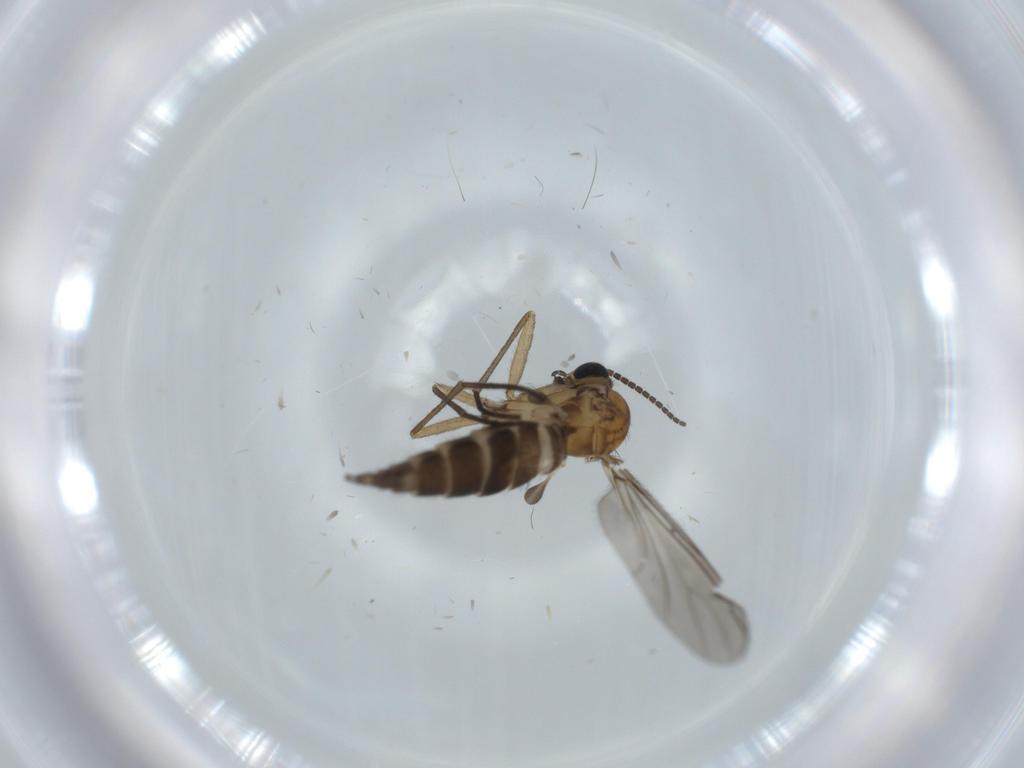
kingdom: Animalia
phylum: Arthropoda
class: Insecta
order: Diptera
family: Sciaridae
